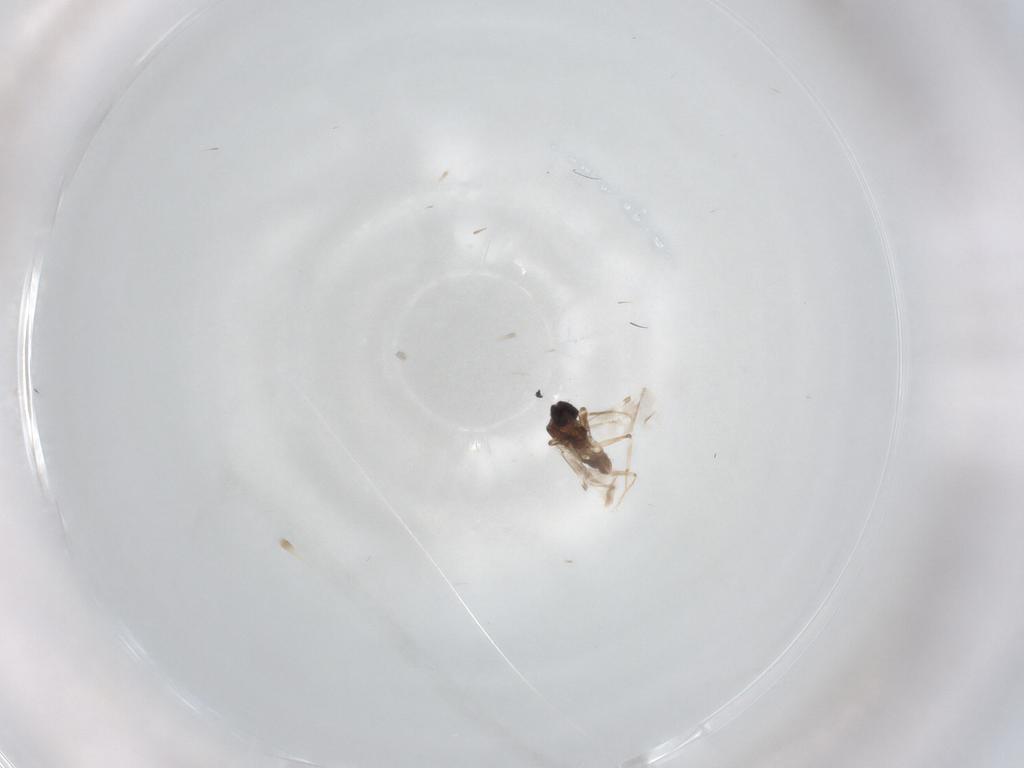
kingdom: Animalia
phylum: Arthropoda
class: Insecta
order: Diptera
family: Ceratopogonidae
